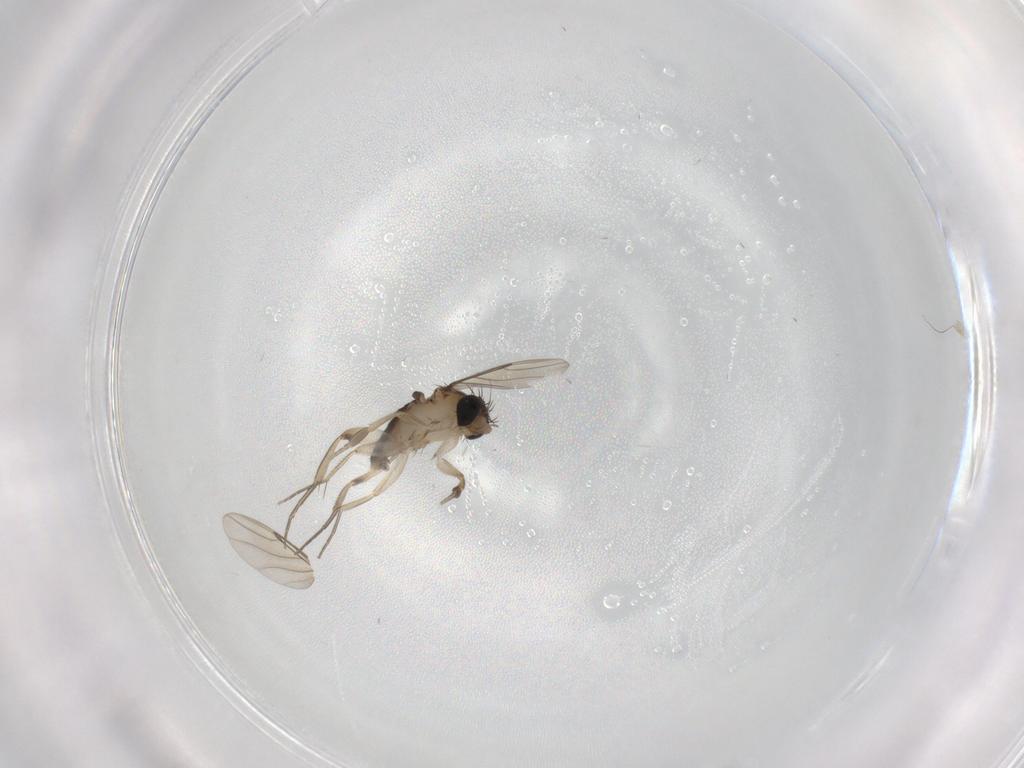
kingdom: Animalia
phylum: Arthropoda
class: Insecta
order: Diptera
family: Phoridae
